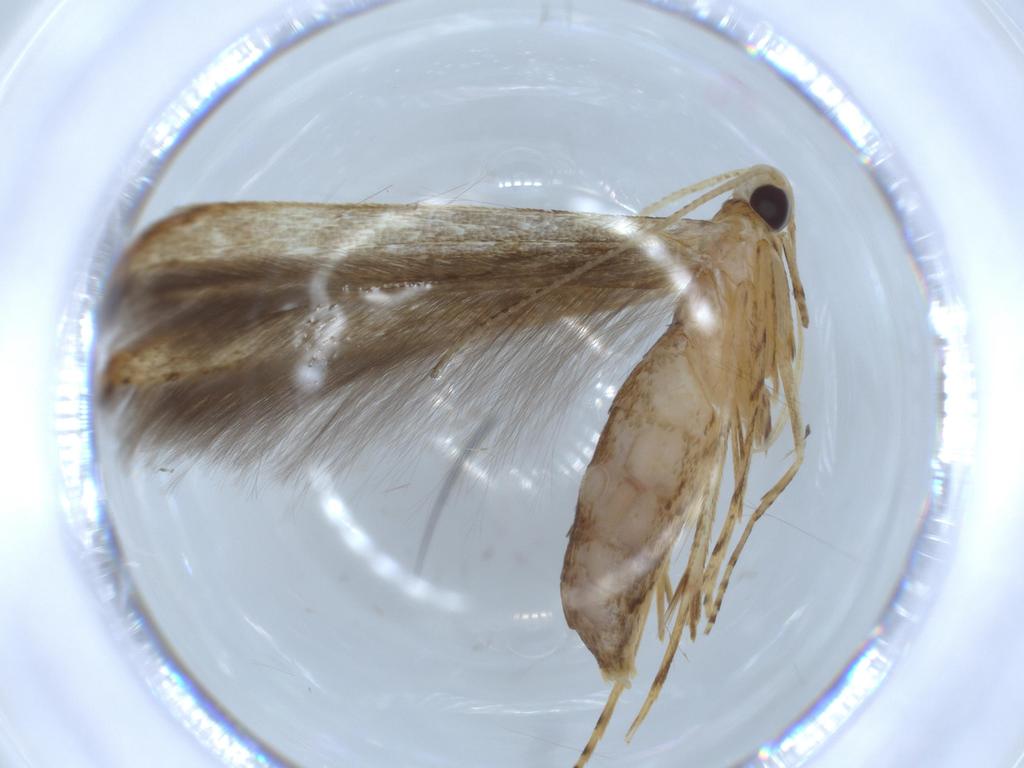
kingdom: Animalia
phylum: Arthropoda
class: Insecta
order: Lepidoptera
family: Batrachedridae
